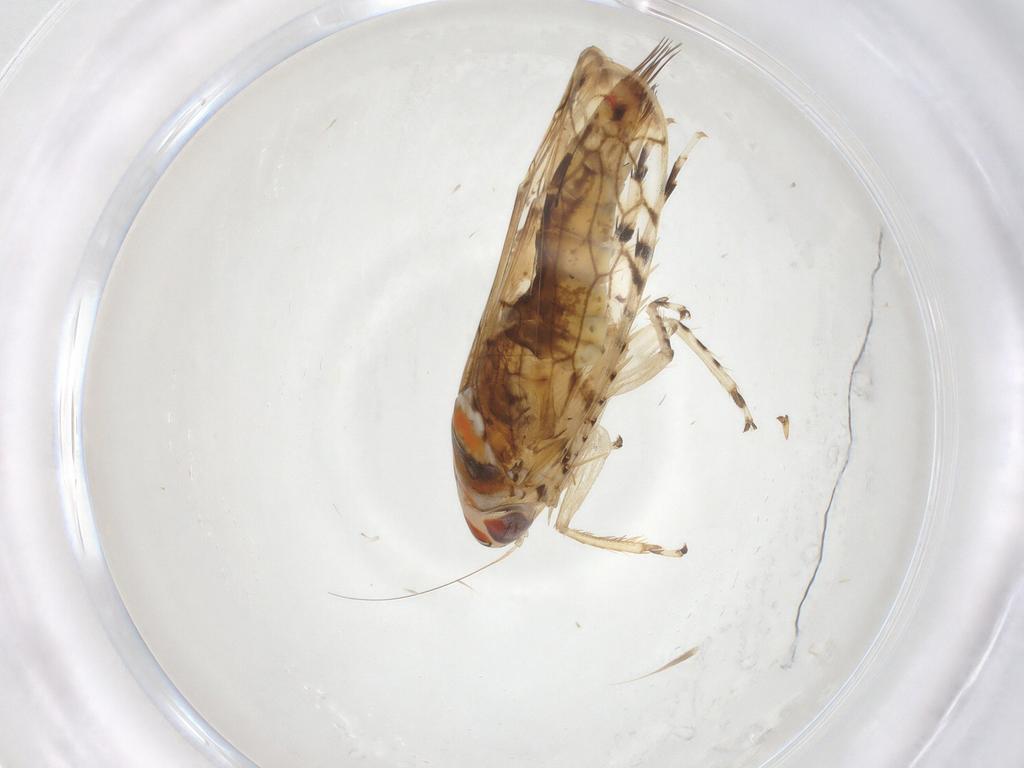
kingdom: Animalia
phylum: Arthropoda
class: Insecta
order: Hemiptera
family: Cicadellidae
